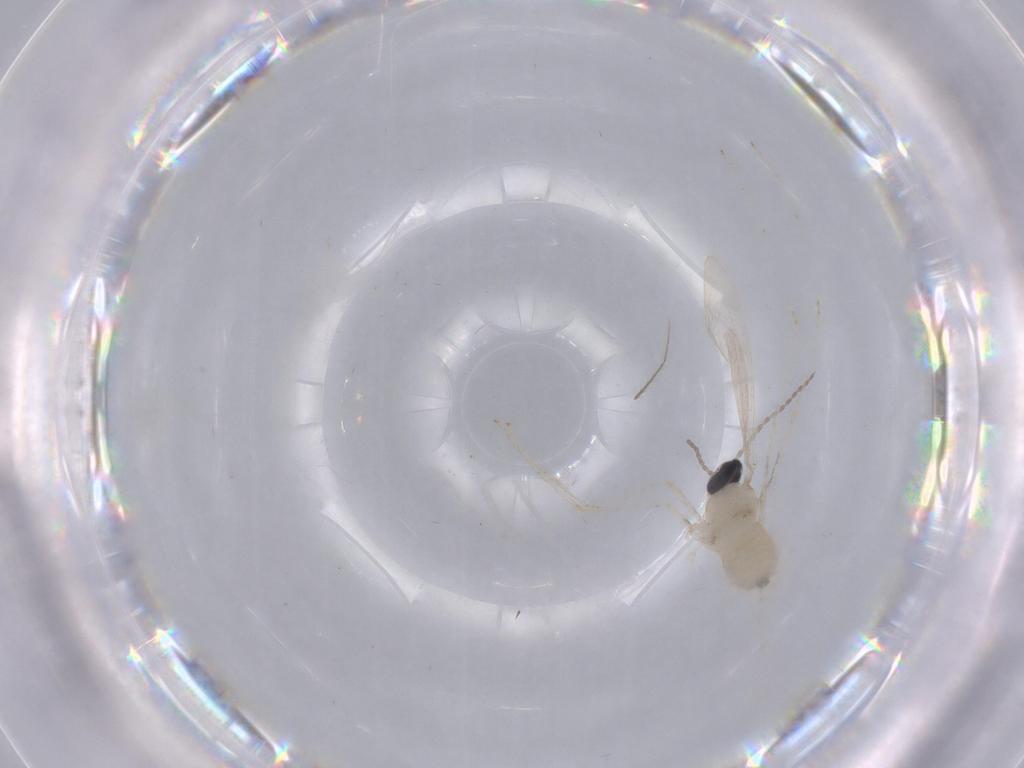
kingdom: Animalia
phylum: Arthropoda
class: Insecta
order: Diptera
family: Cecidomyiidae
